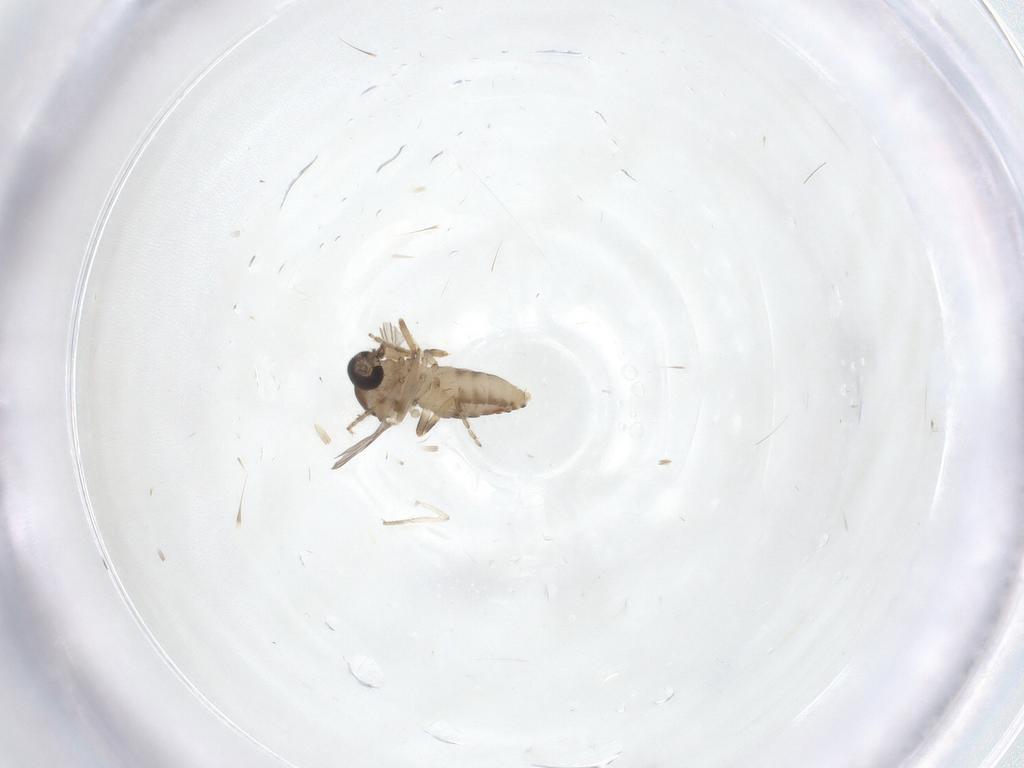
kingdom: Animalia
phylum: Arthropoda
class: Insecta
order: Diptera
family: Ceratopogonidae
